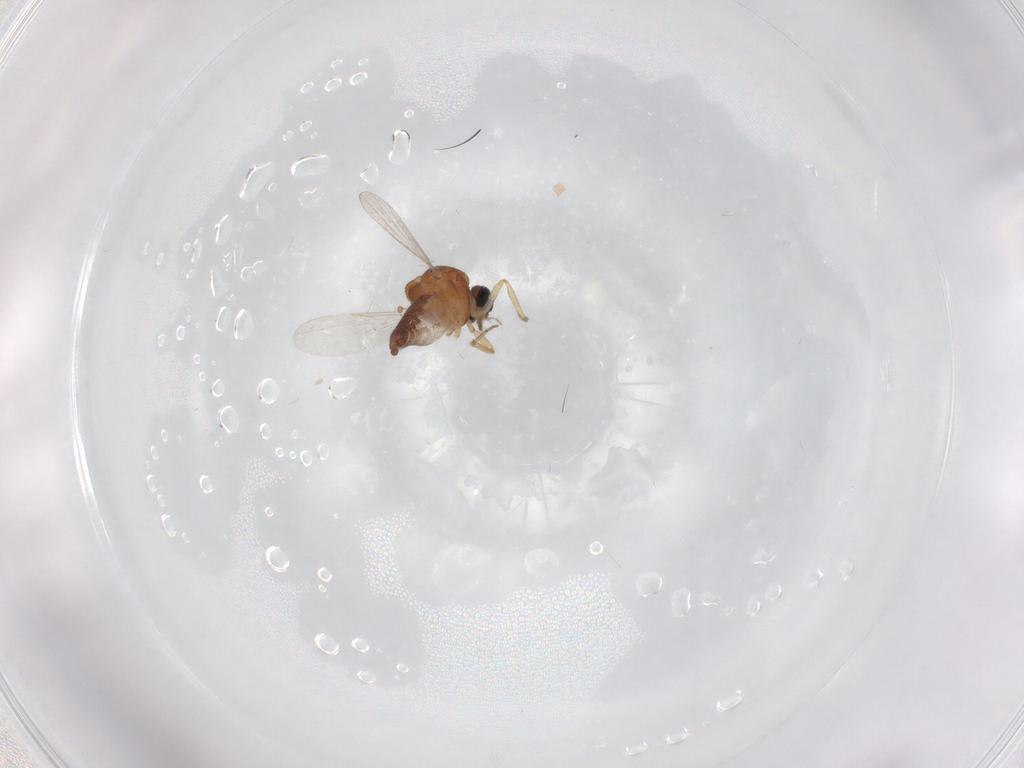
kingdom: Animalia
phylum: Arthropoda
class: Insecta
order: Diptera
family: Ceratopogonidae
